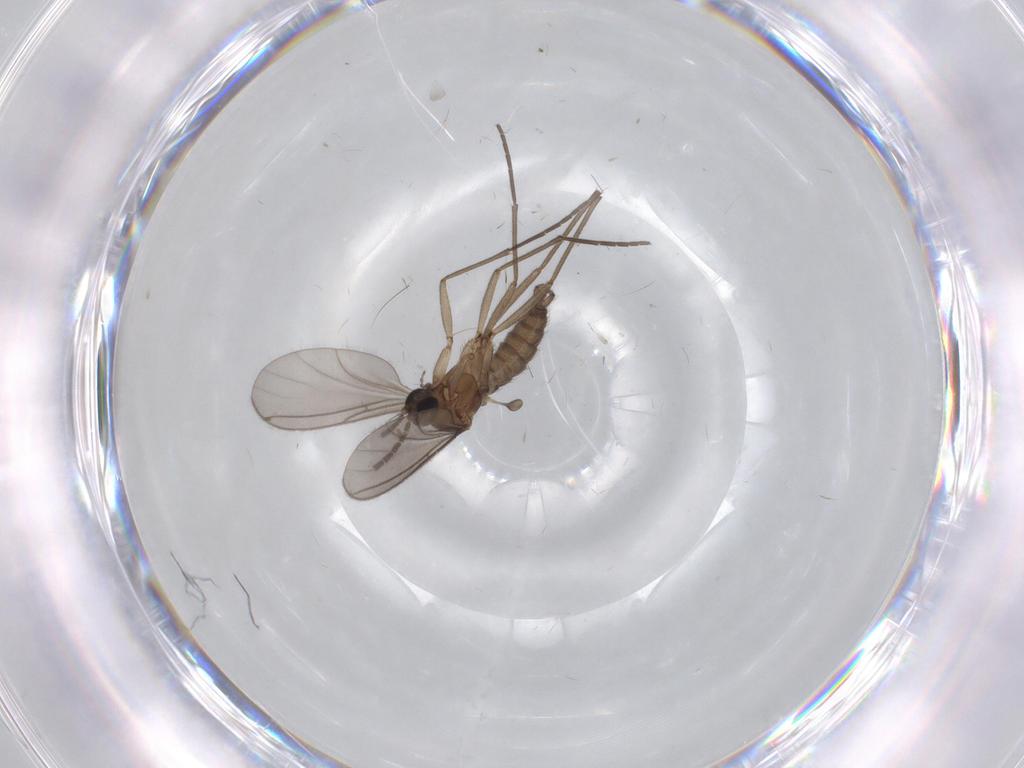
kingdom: Animalia
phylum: Arthropoda
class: Insecta
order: Diptera
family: Sciaridae
